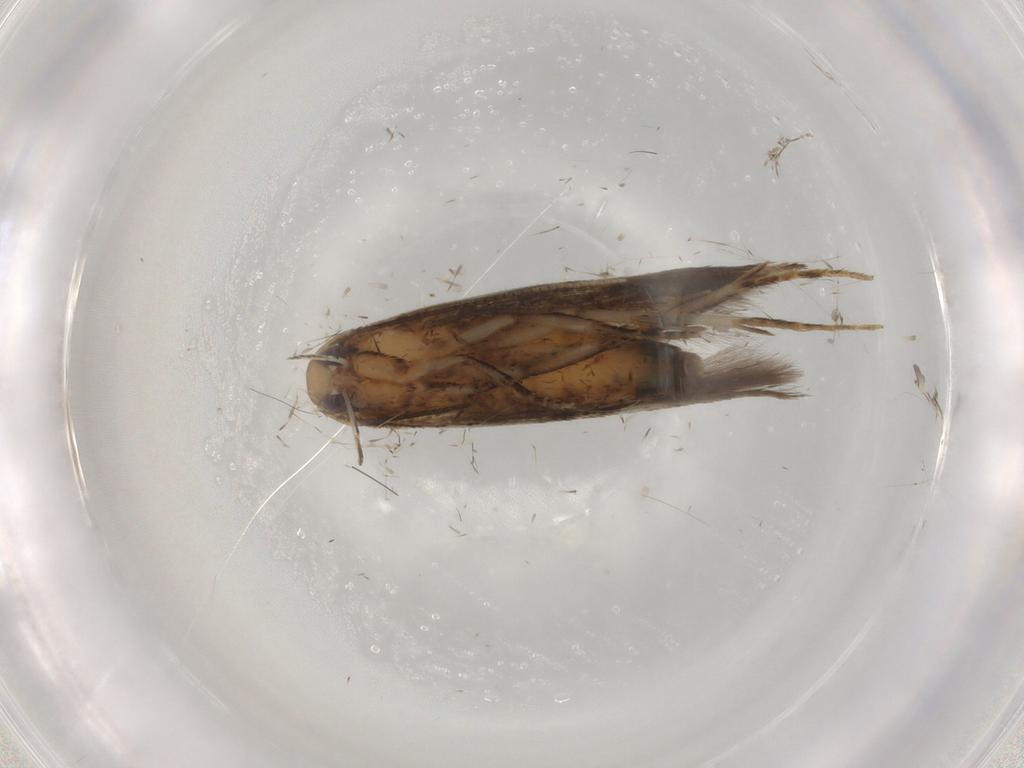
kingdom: Animalia
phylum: Arthropoda
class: Insecta
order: Lepidoptera
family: Cosmopterigidae
